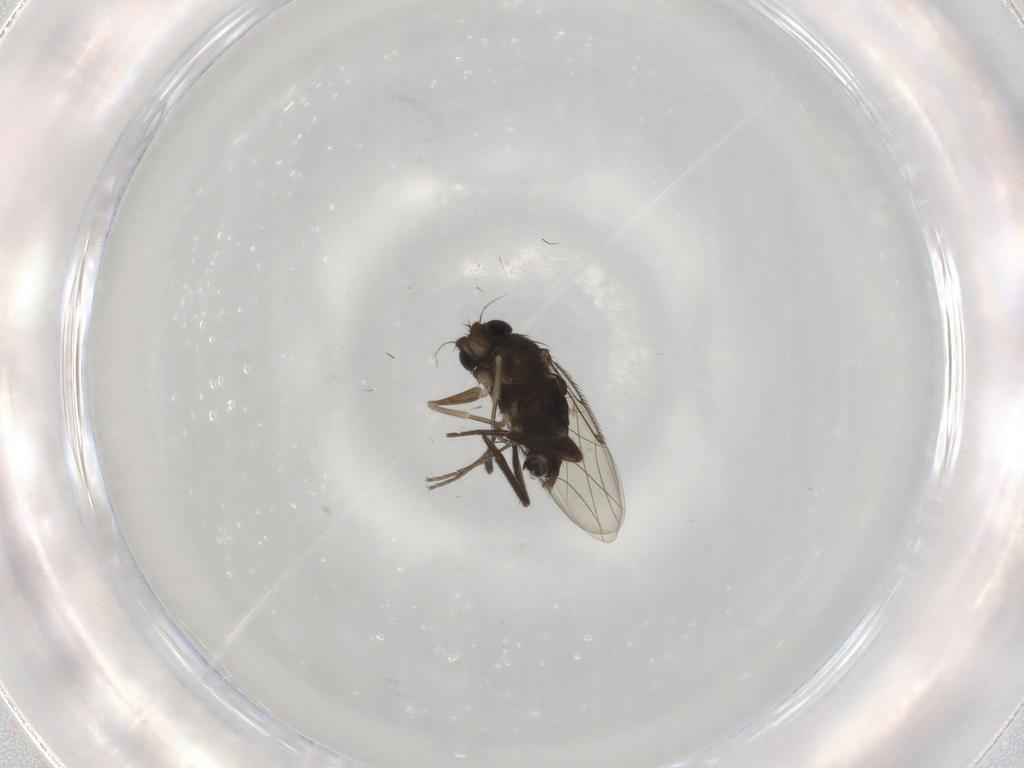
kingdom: Animalia
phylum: Arthropoda
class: Insecta
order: Diptera
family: Phoridae
